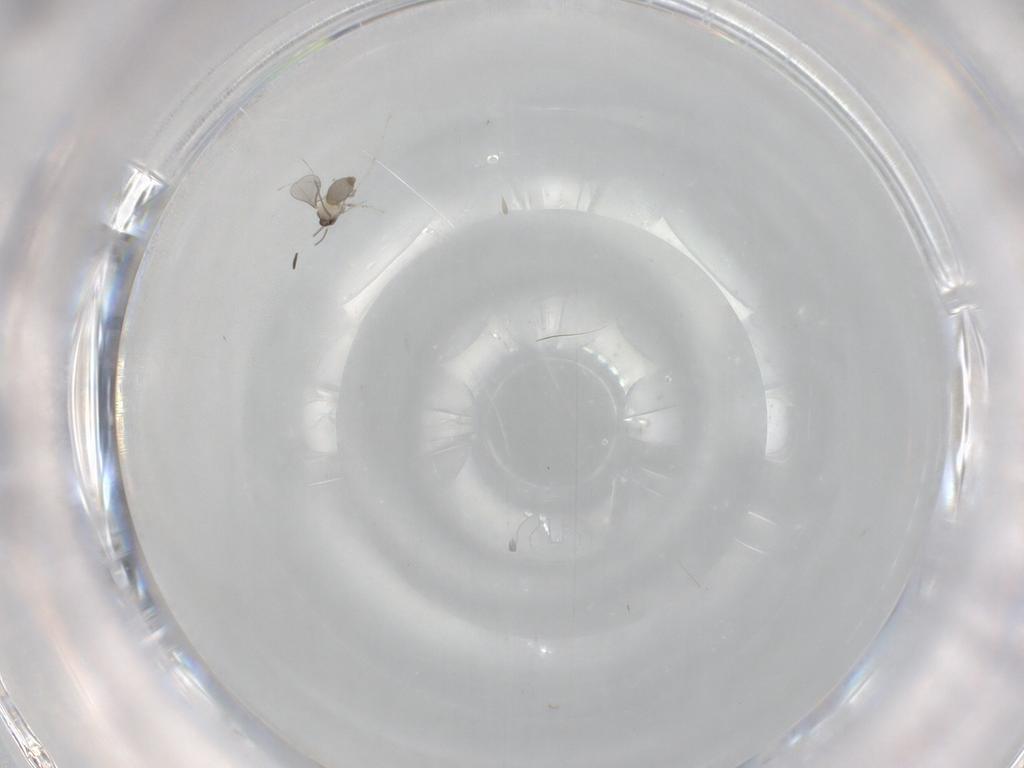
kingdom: Animalia
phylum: Arthropoda
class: Insecta
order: Diptera
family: Cecidomyiidae
